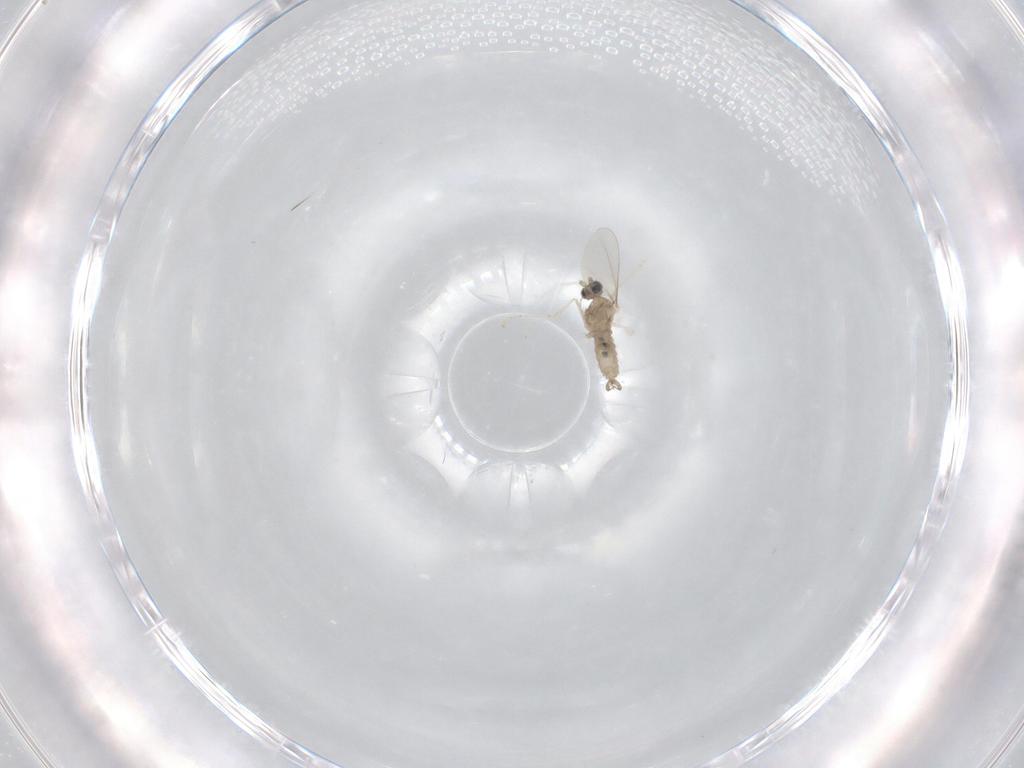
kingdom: Animalia
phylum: Arthropoda
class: Insecta
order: Diptera
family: Cecidomyiidae
